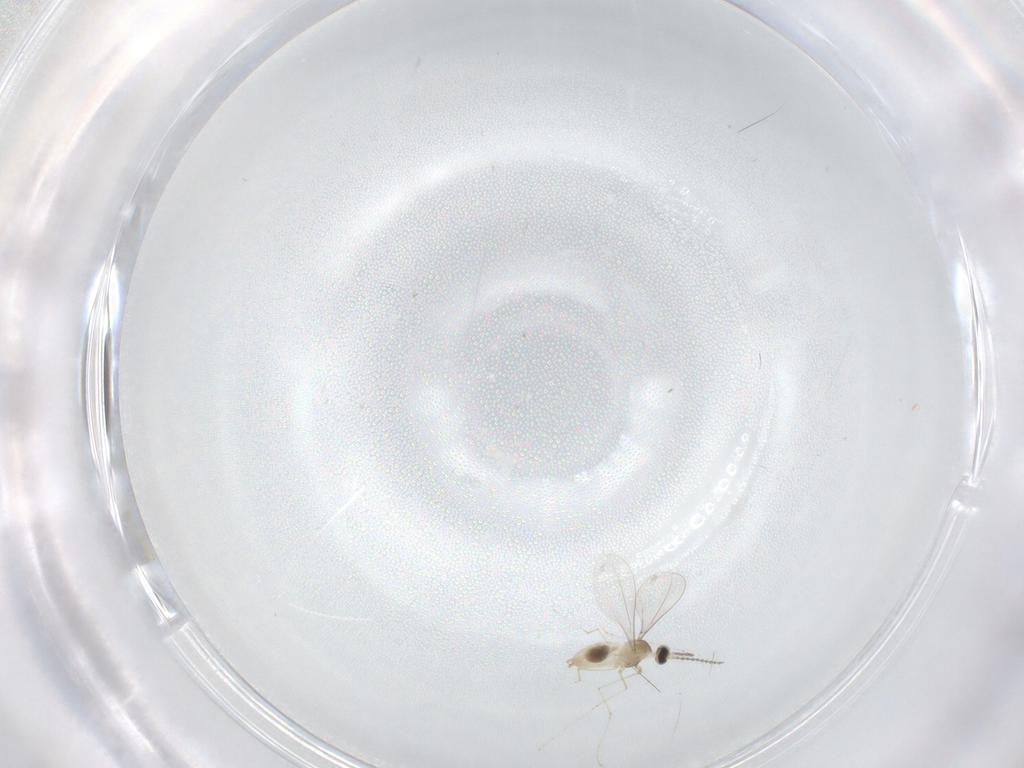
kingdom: Animalia
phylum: Arthropoda
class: Insecta
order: Diptera
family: Cecidomyiidae
